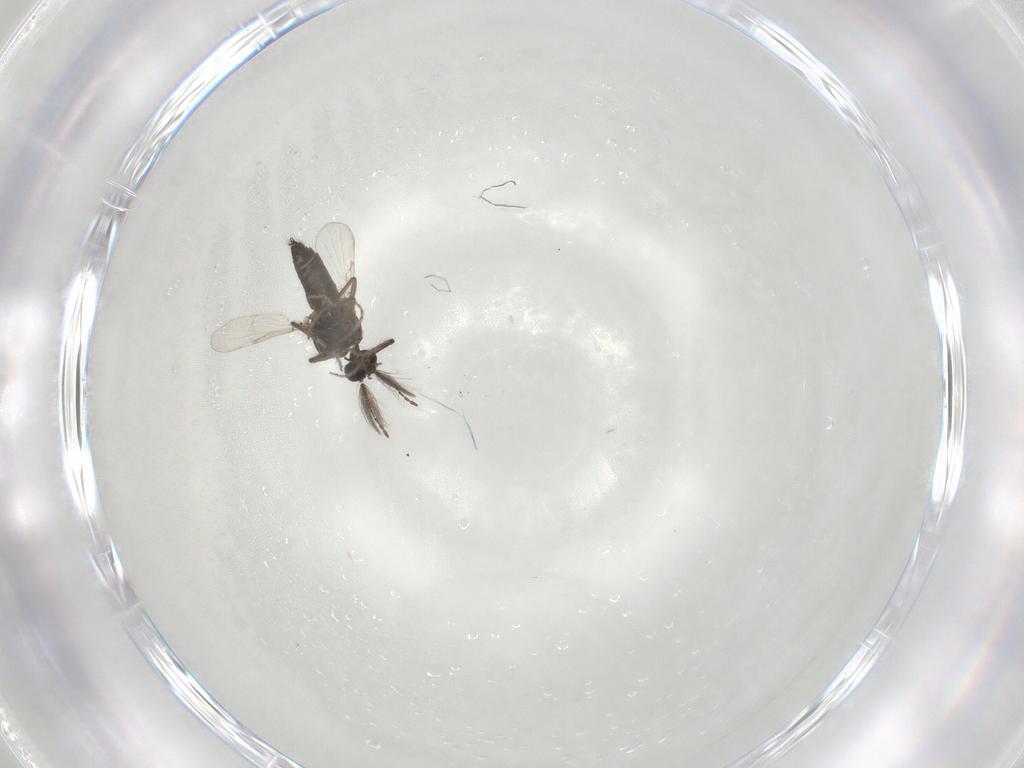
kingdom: Animalia
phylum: Arthropoda
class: Insecta
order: Diptera
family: Ceratopogonidae
